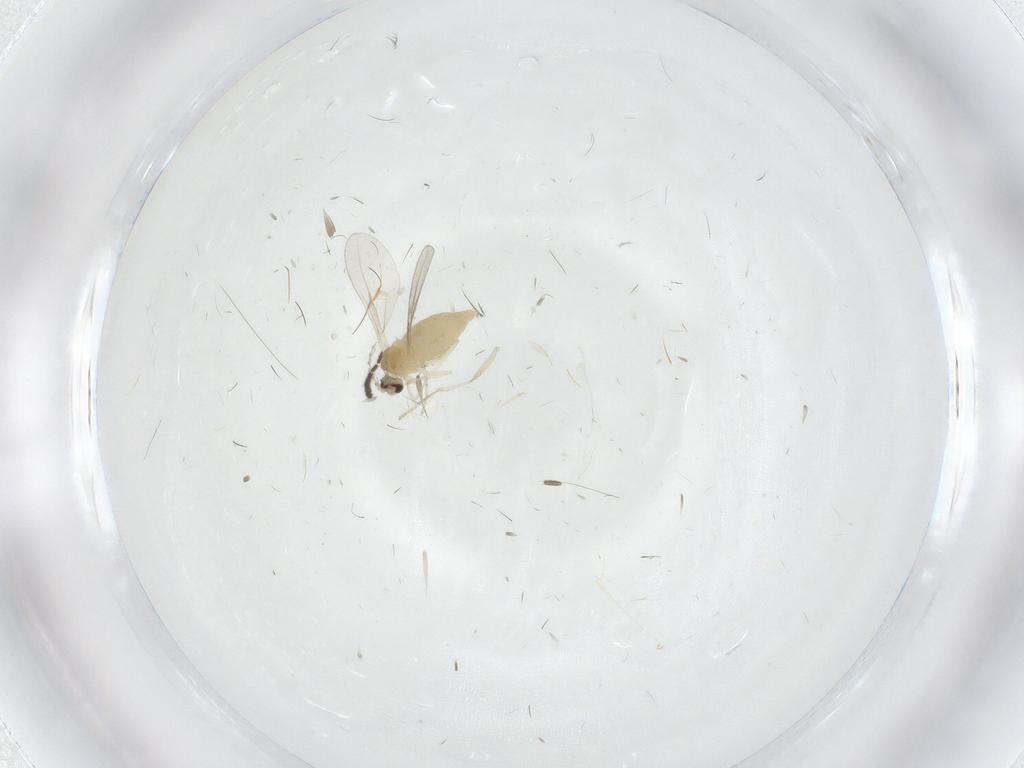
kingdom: Animalia
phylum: Arthropoda
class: Insecta
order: Diptera
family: Cecidomyiidae
